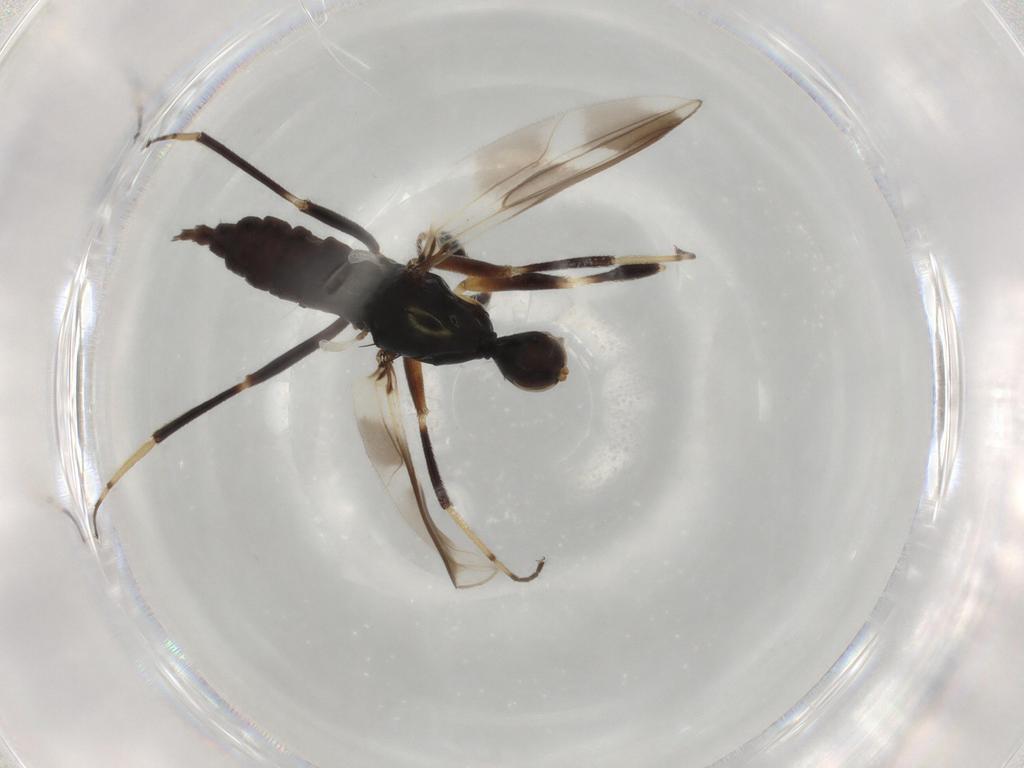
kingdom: Animalia
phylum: Arthropoda
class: Insecta
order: Diptera
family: Hybotidae
